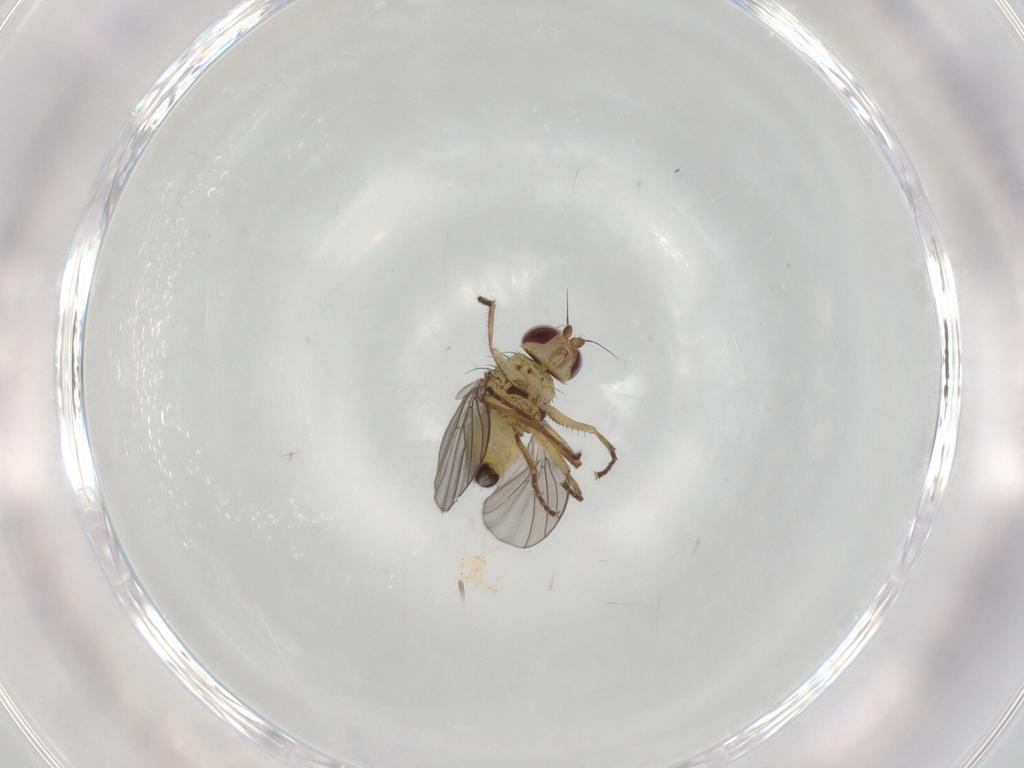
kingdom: Animalia
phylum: Arthropoda
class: Insecta
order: Diptera
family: Agromyzidae
